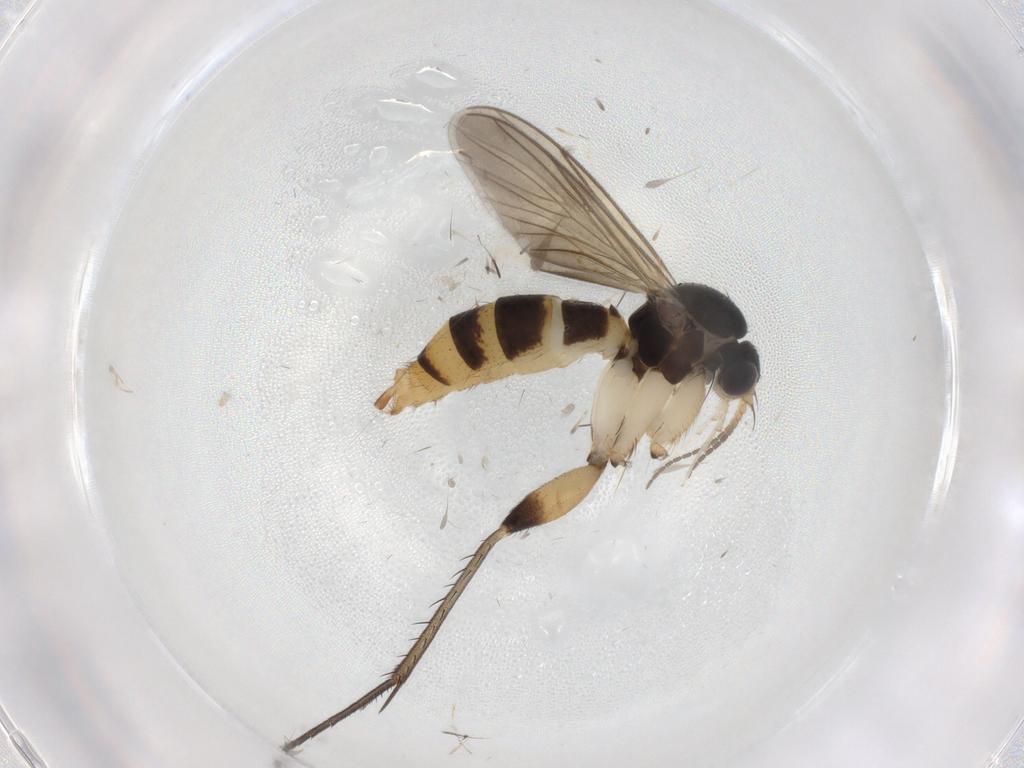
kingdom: Animalia
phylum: Arthropoda
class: Insecta
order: Diptera
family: Mycetophilidae
